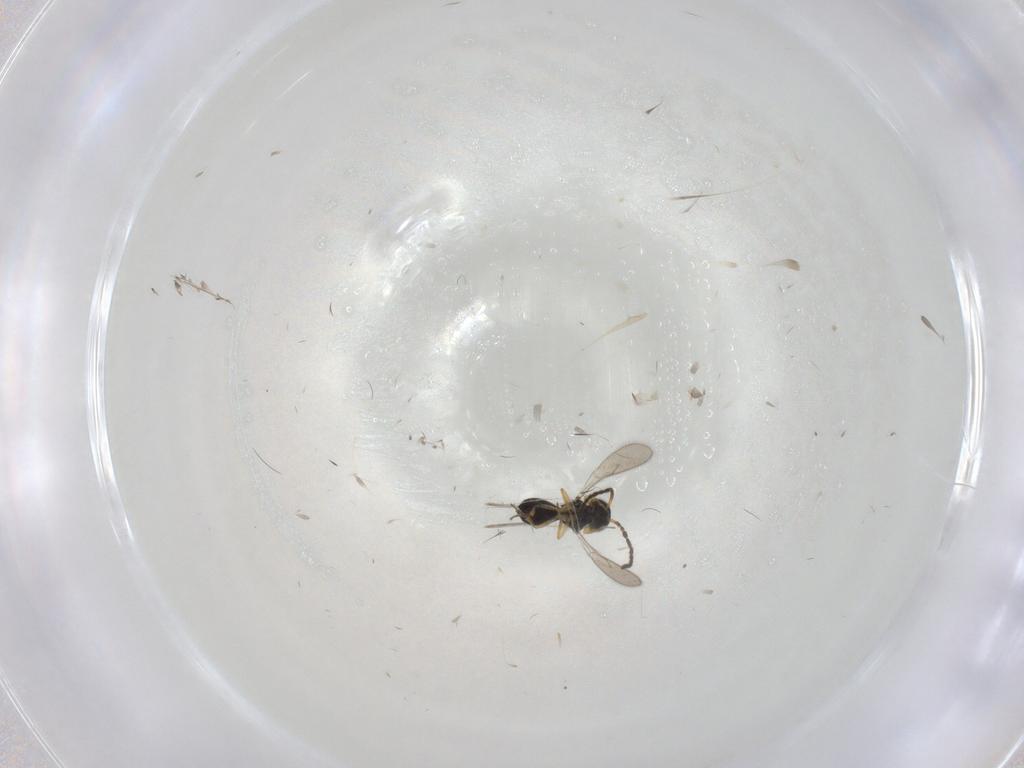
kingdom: Animalia
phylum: Arthropoda
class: Insecta
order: Hymenoptera
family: Scelionidae
